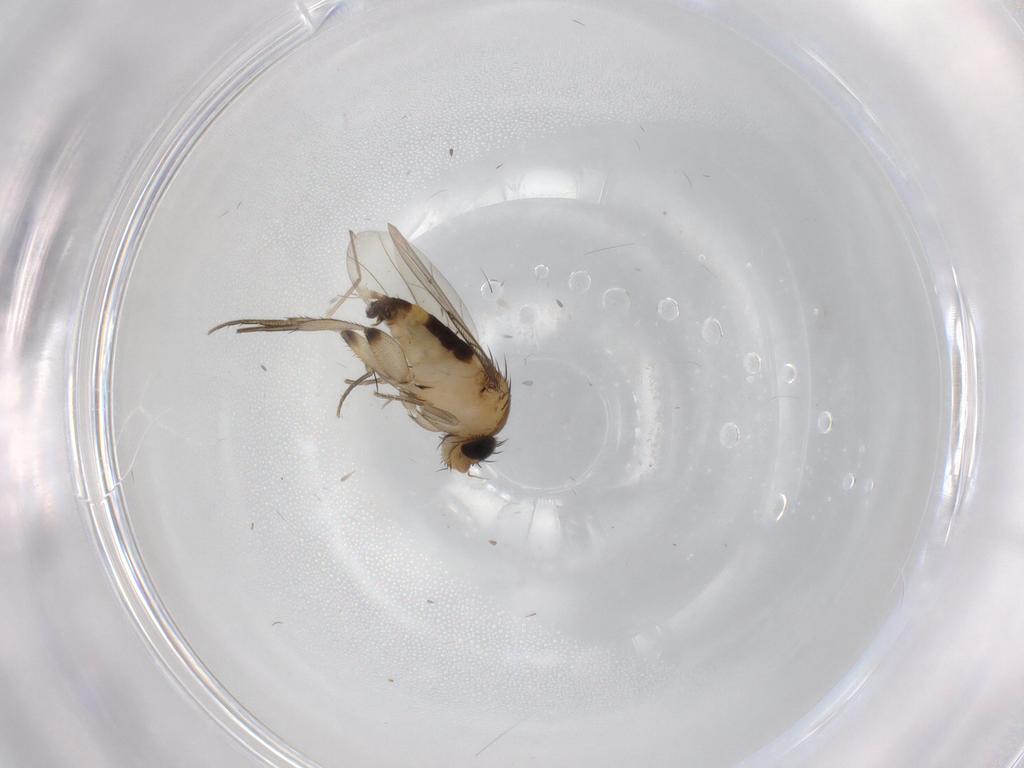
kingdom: Animalia
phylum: Arthropoda
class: Insecta
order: Diptera
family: Phoridae
